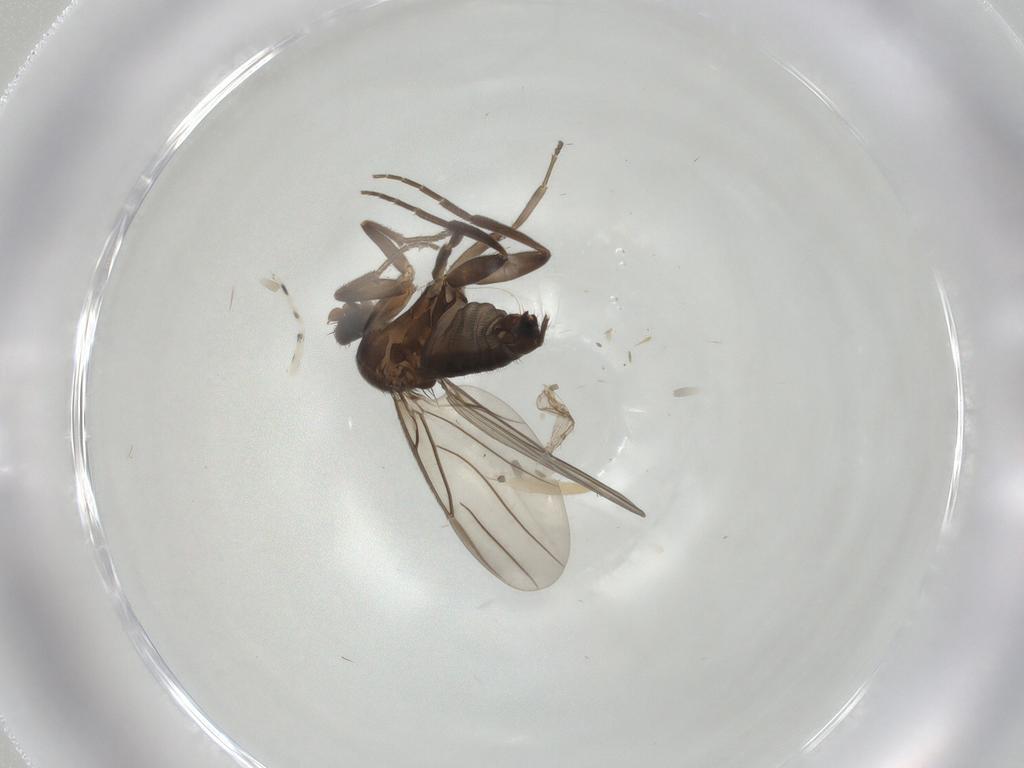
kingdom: Animalia
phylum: Arthropoda
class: Collembola
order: Entomobryomorpha
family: Entomobryidae
